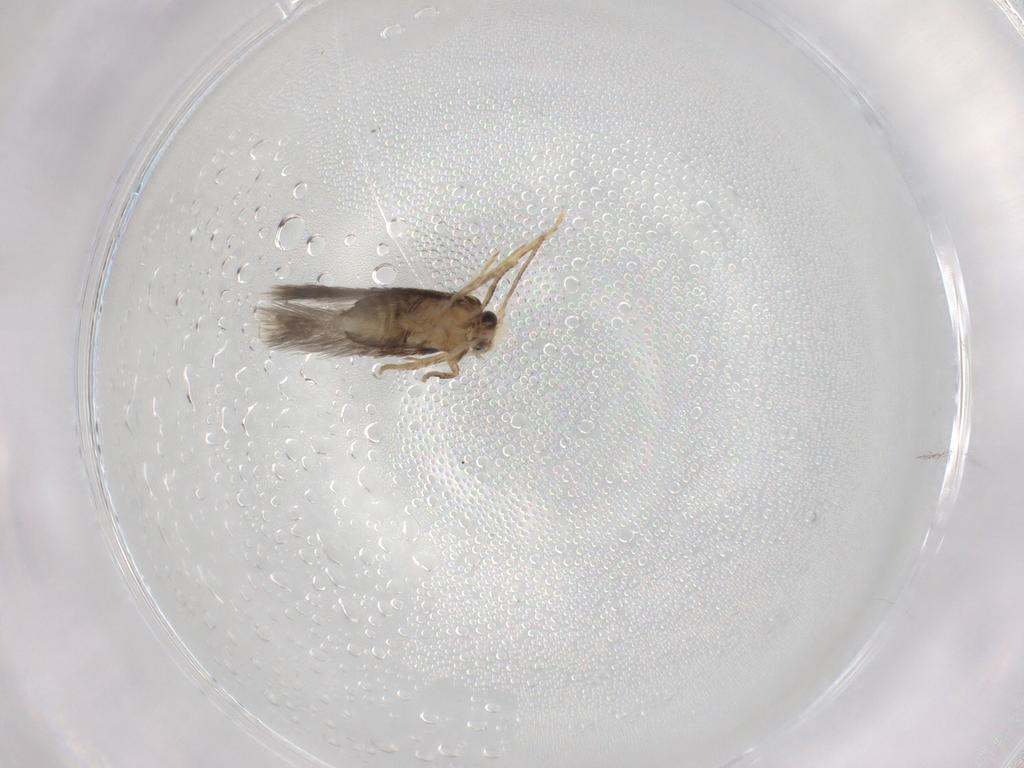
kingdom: Animalia
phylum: Arthropoda
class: Insecta
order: Lepidoptera
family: Nepticulidae
